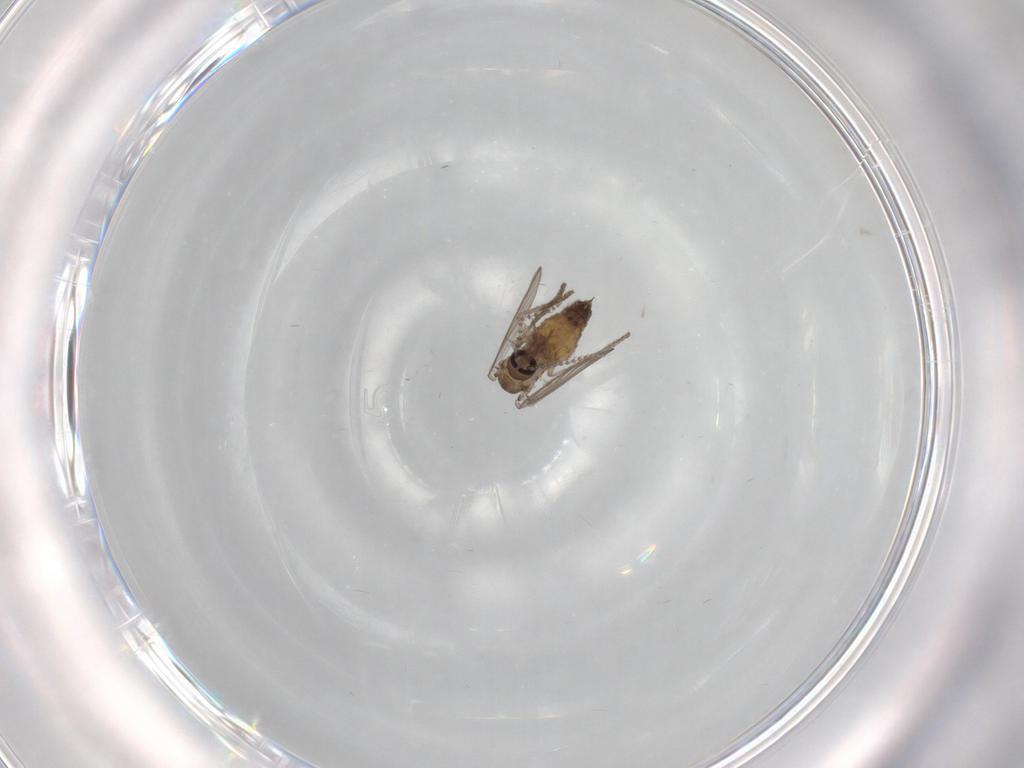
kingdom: Animalia
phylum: Arthropoda
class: Insecta
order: Diptera
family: Psychodidae
